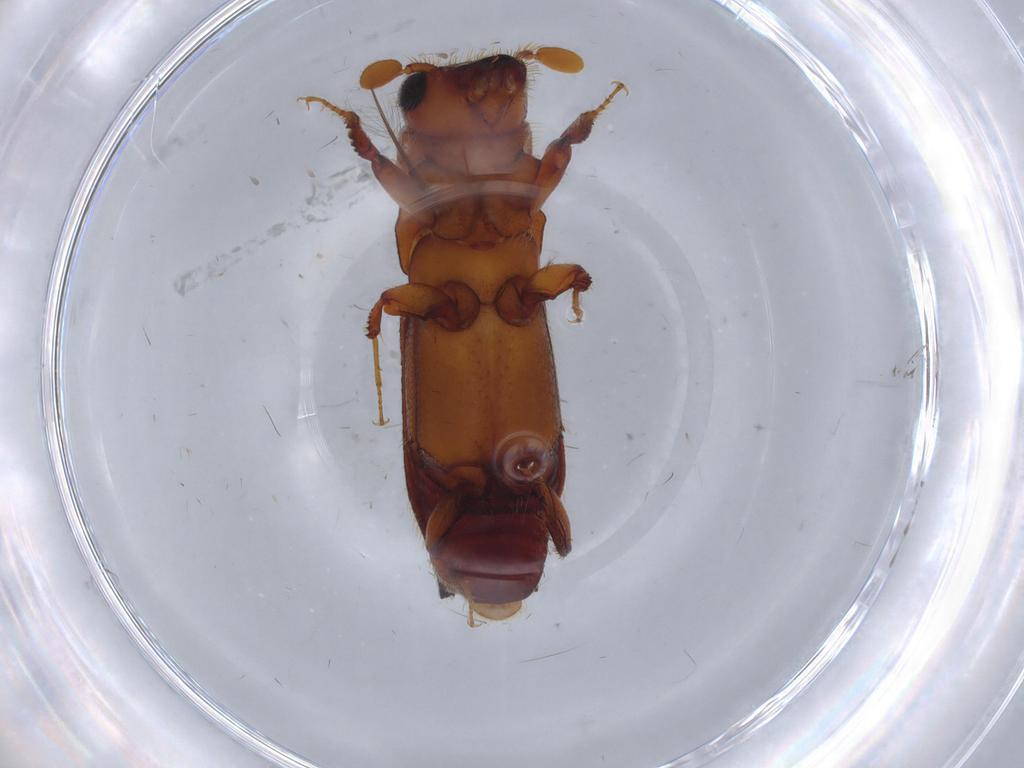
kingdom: Animalia
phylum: Arthropoda
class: Insecta
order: Coleoptera
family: Curculionidae
